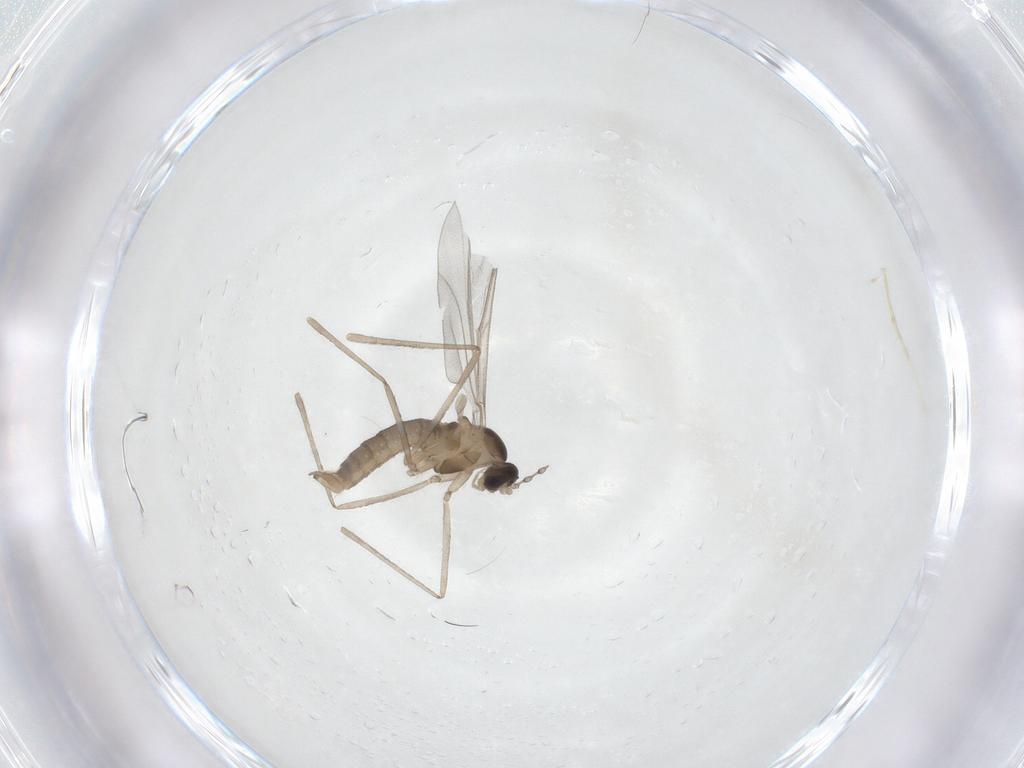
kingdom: Animalia
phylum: Arthropoda
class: Insecta
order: Diptera
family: Cecidomyiidae
